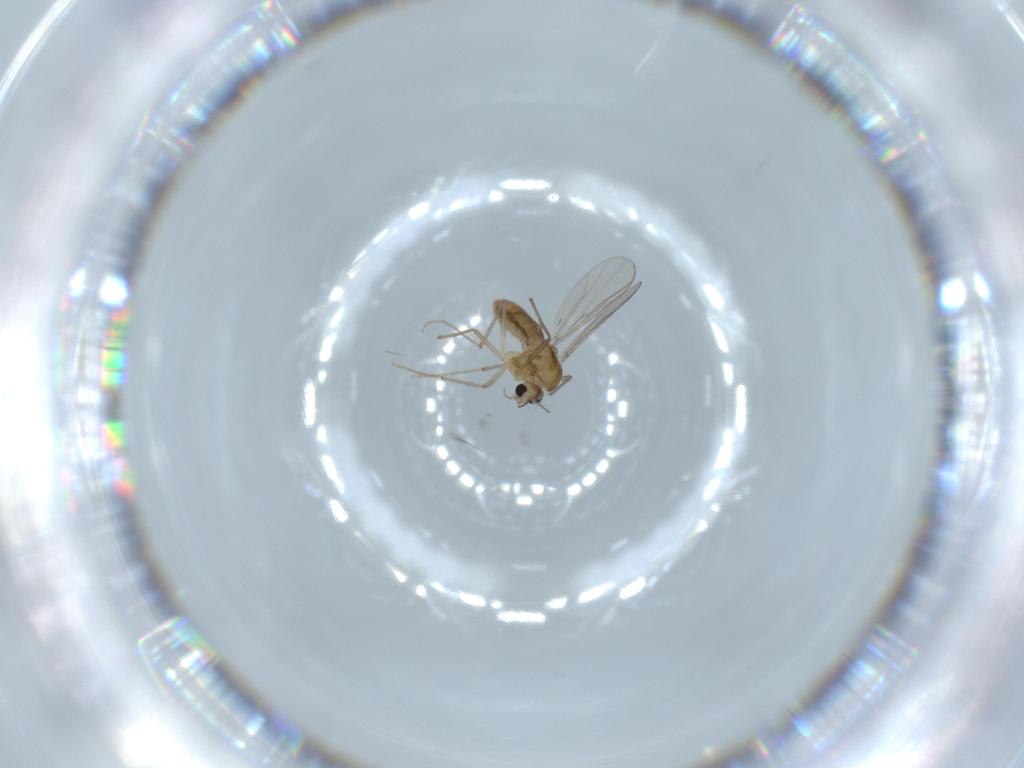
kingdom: Animalia
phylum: Arthropoda
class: Insecta
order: Diptera
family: Chironomidae
